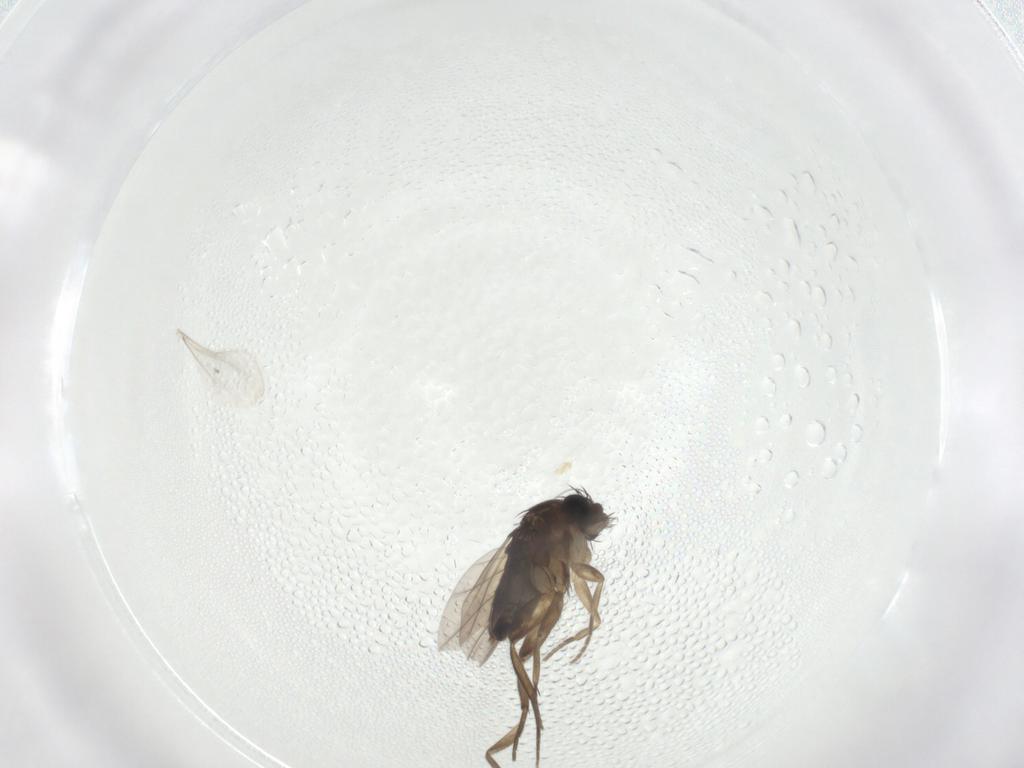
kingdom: Animalia
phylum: Arthropoda
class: Insecta
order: Diptera
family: Phoridae
